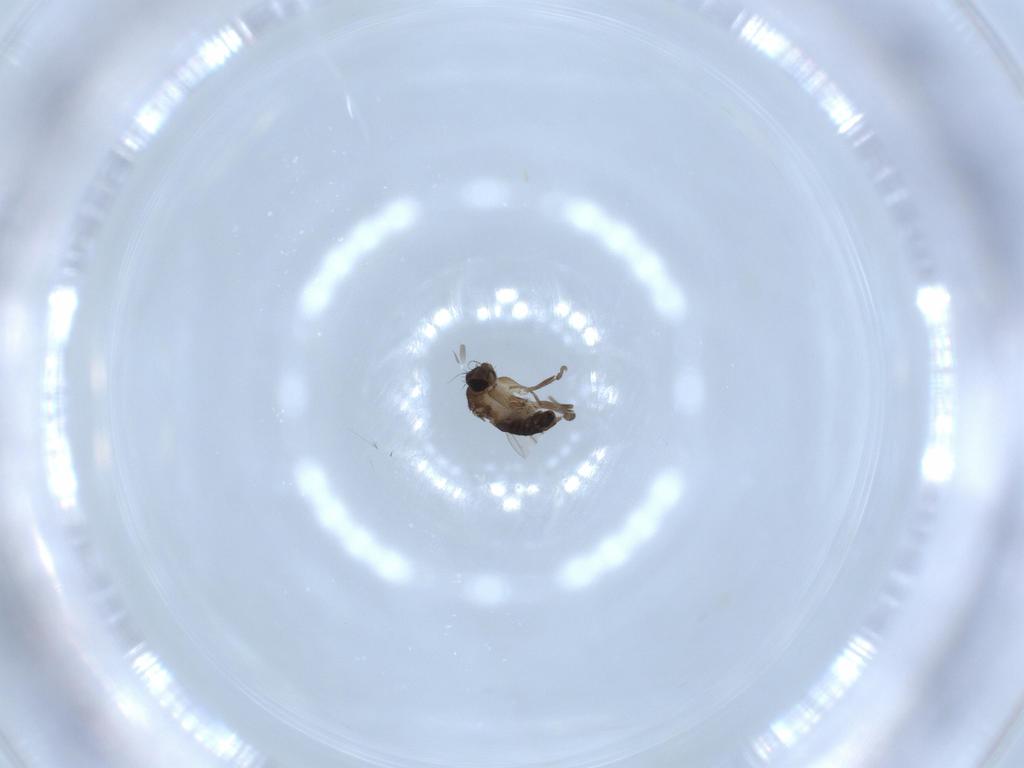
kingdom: Animalia
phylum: Arthropoda
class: Insecta
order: Diptera
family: Phoridae
